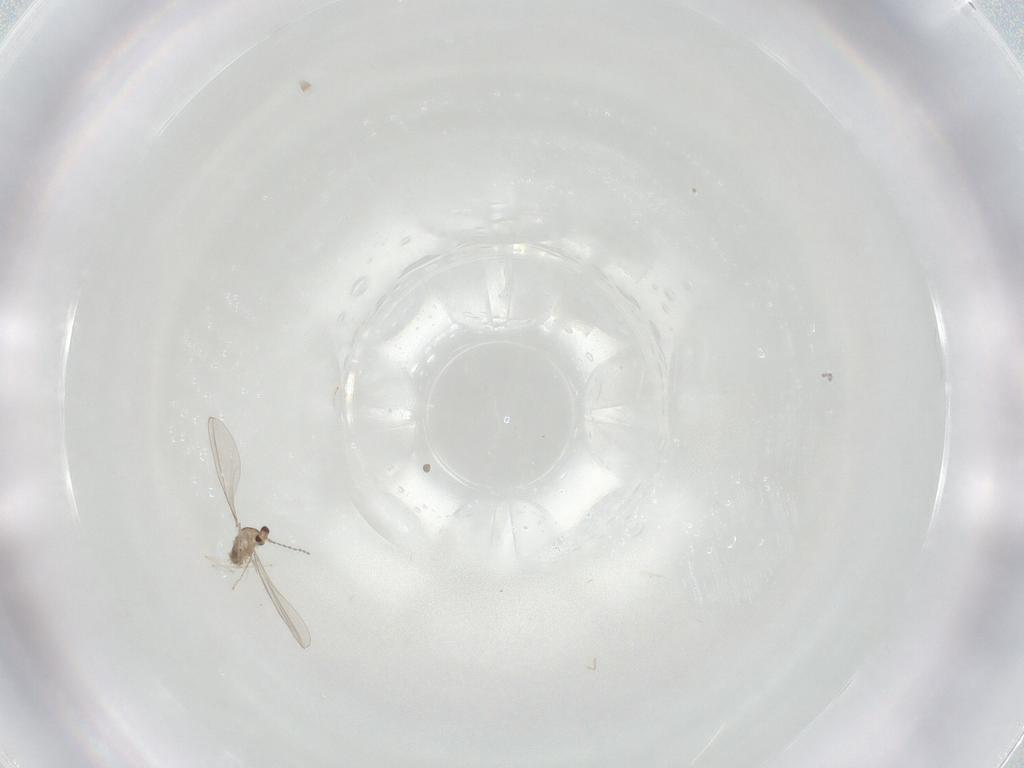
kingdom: Animalia
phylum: Arthropoda
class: Insecta
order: Diptera
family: Cecidomyiidae
